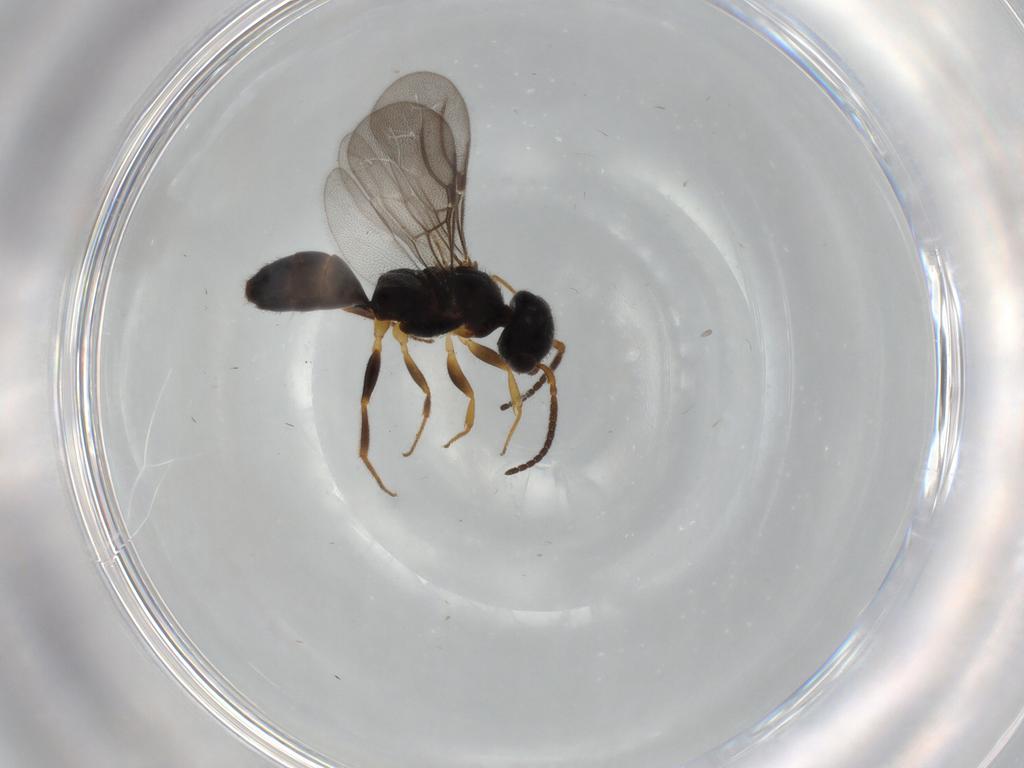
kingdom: Animalia
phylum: Arthropoda
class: Insecta
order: Hymenoptera
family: Bethylidae
